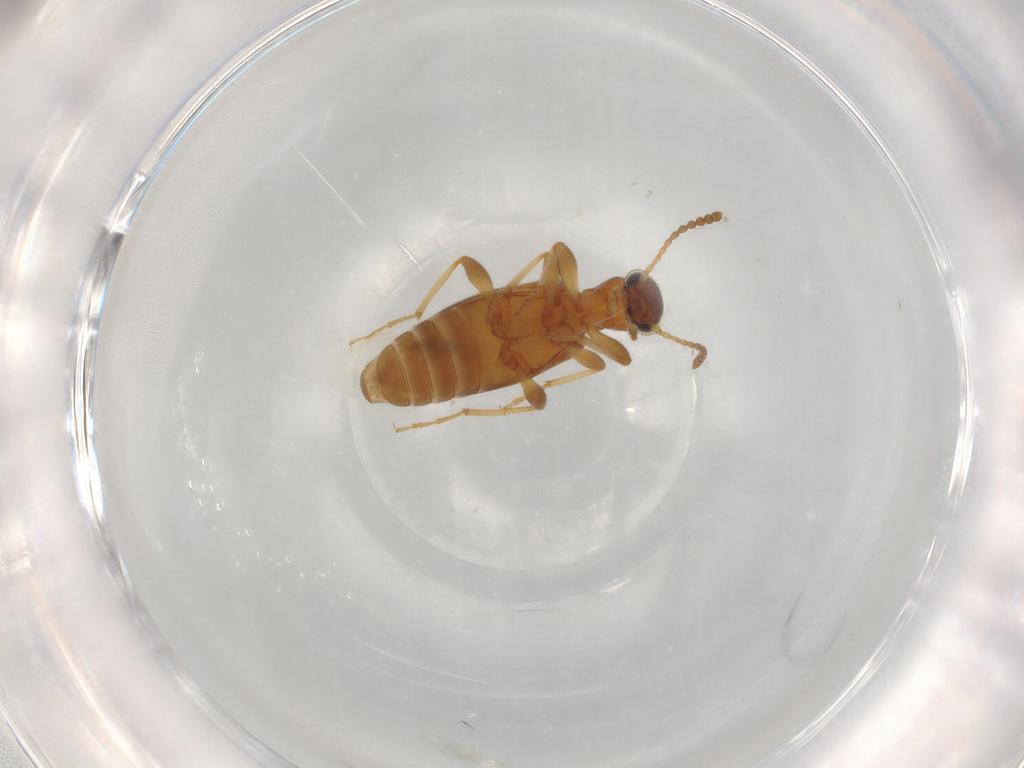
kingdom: Animalia
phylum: Arthropoda
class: Insecta
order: Coleoptera
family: Anthicidae
